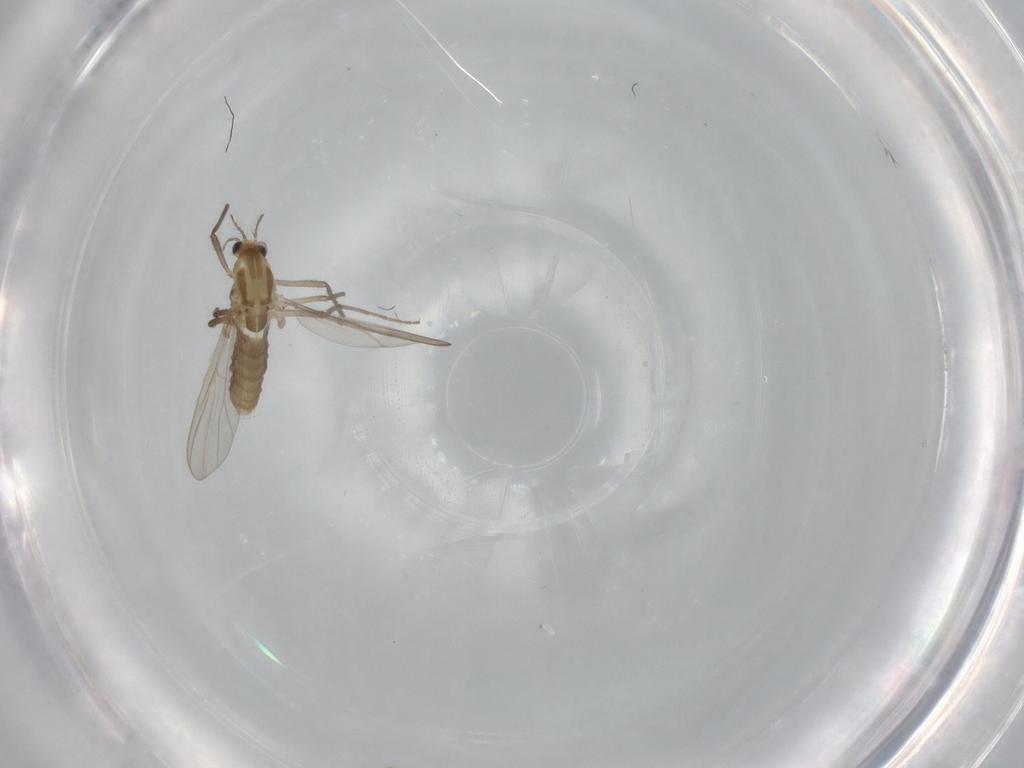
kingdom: Animalia
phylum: Arthropoda
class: Insecta
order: Diptera
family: Chironomidae
